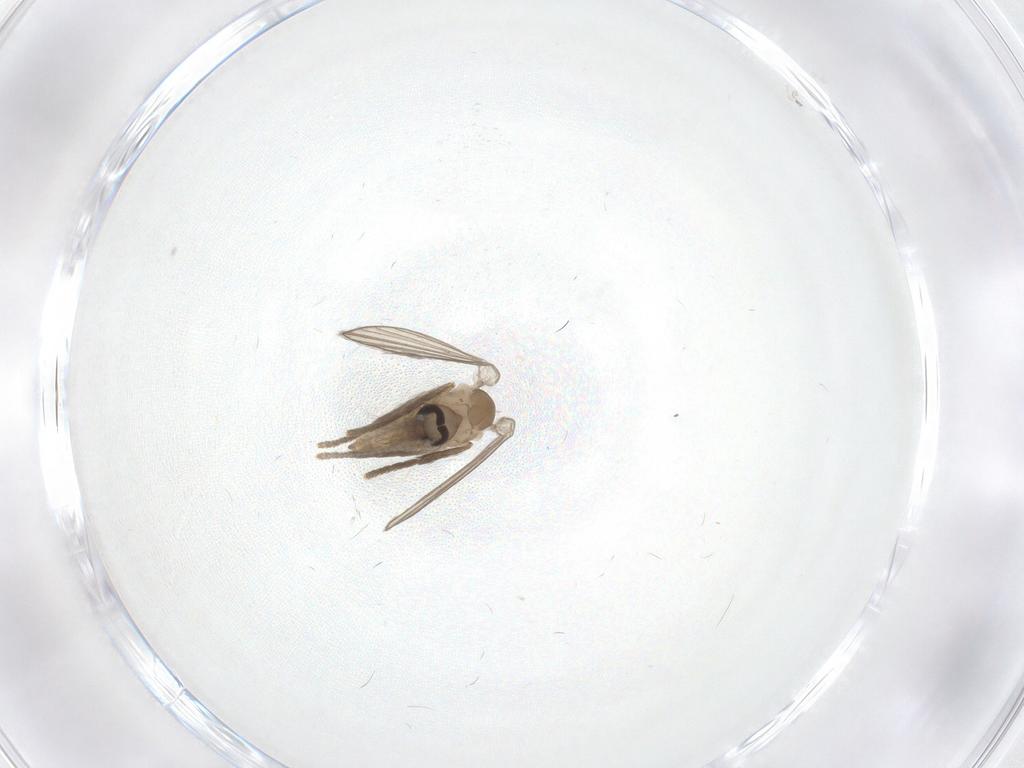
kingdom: Animalia
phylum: Arthropoda
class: Insecta
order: Diptera
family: Psychodidae
